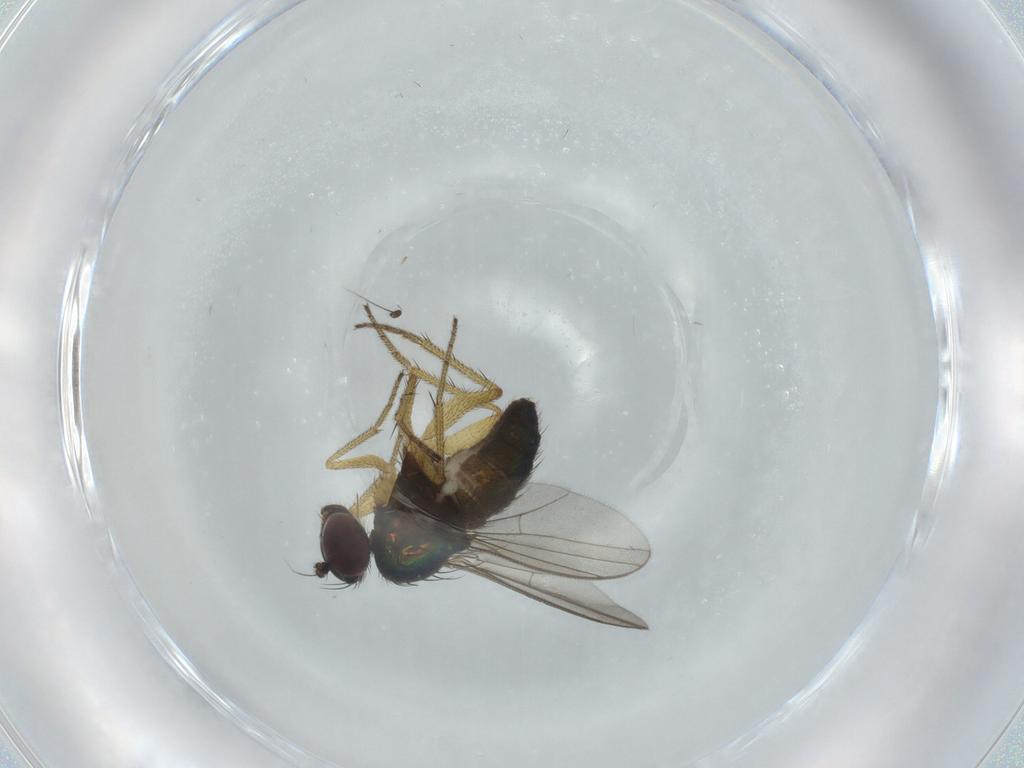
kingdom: Animalia
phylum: Arthropoda
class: Insecta
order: Diptera
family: Dolichopodidae
